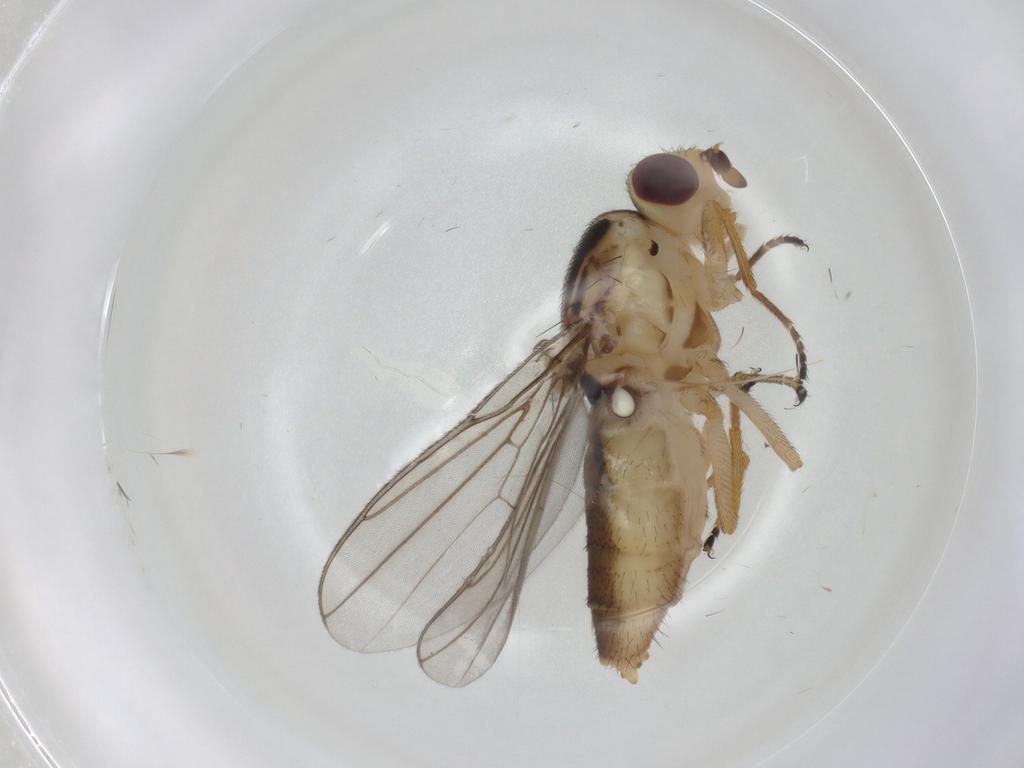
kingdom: Animalia
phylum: Arthropoda
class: Insecta
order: Diptera
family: Chloropidae
